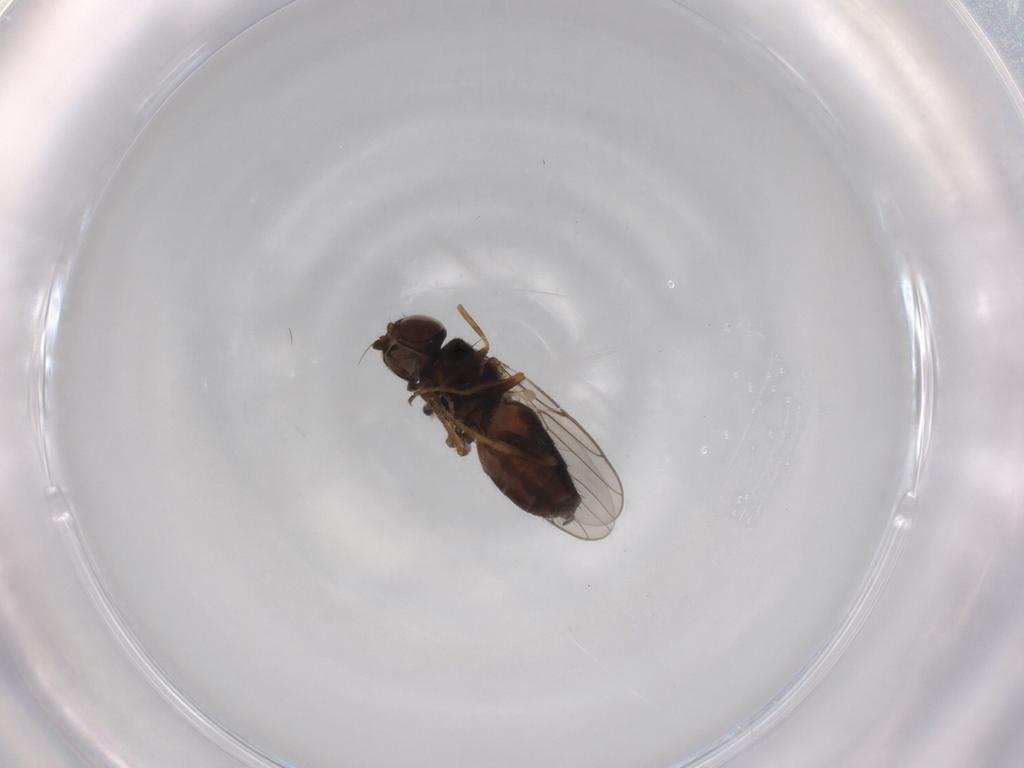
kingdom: Animalia
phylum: Arthropoda
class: Insecta
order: Diptera
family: Chloropidae
